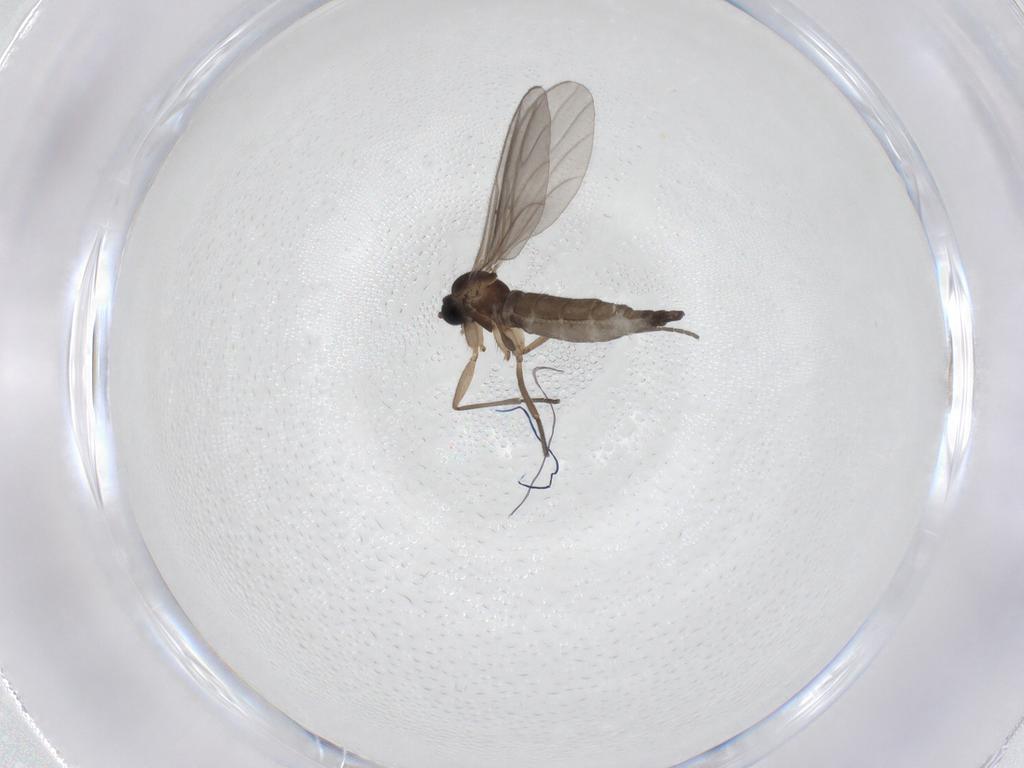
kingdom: Animalia
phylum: Arthropoda
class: Insecta
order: Diptera
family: Sciaridae
